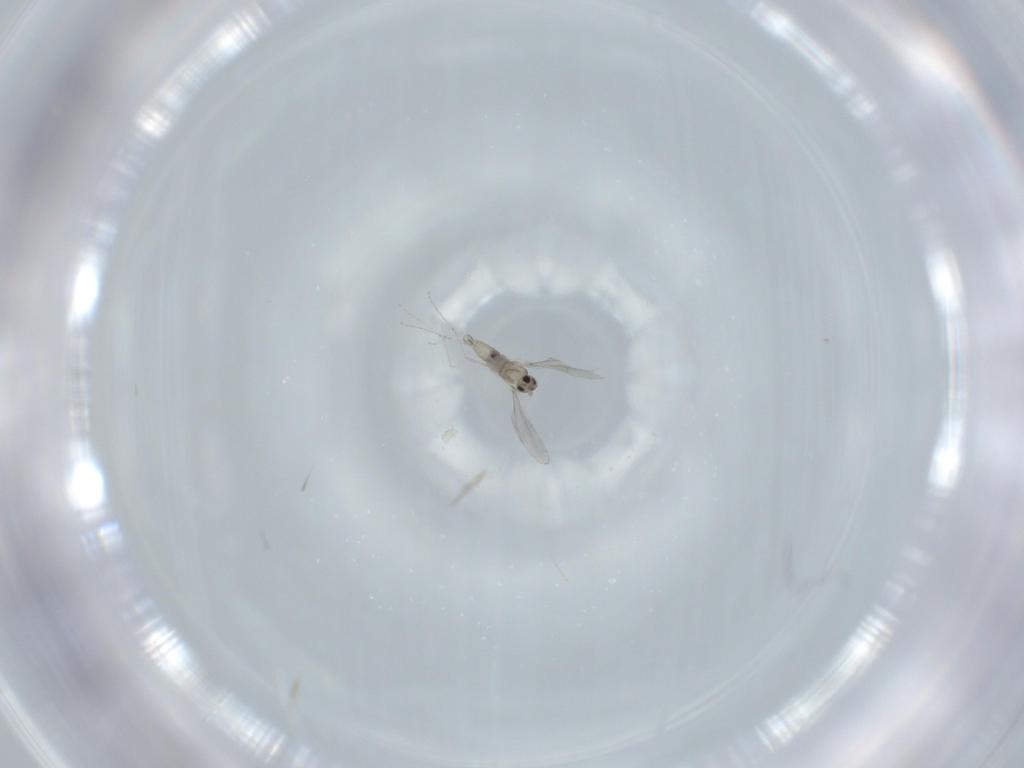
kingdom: Animalia
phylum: Arthropoda
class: Insecta
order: Diptera
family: Cecidomyiidae
